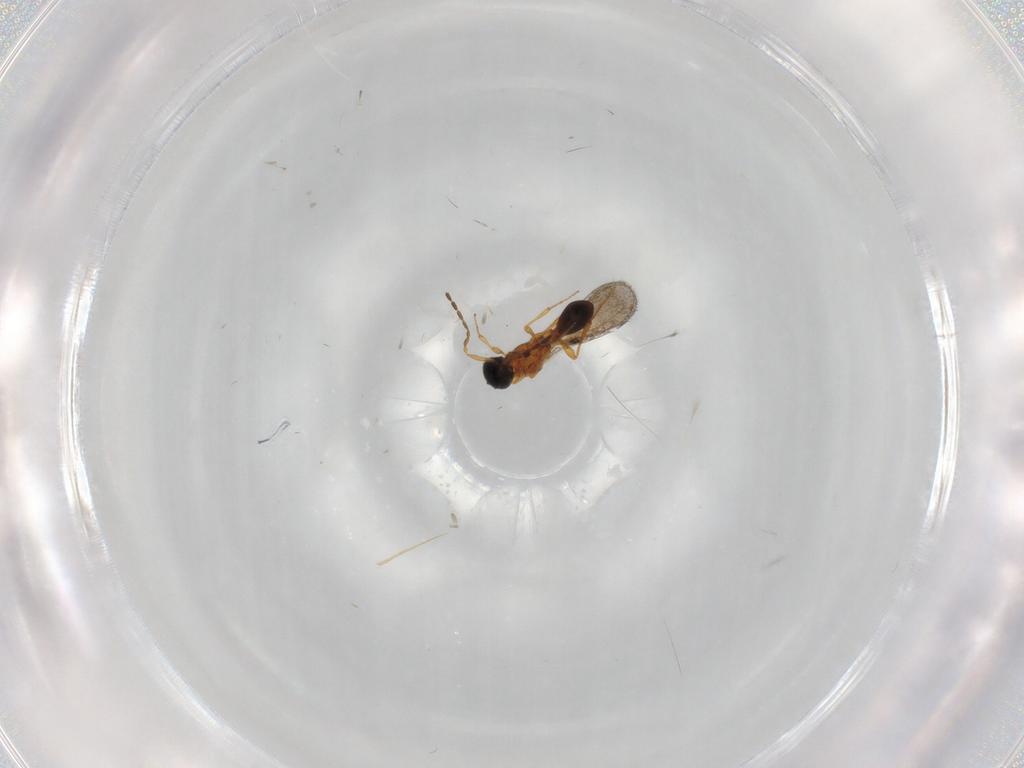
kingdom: Animalia
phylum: Arthropoda
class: Insecta
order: Hymenoptera
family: Platygastridae
